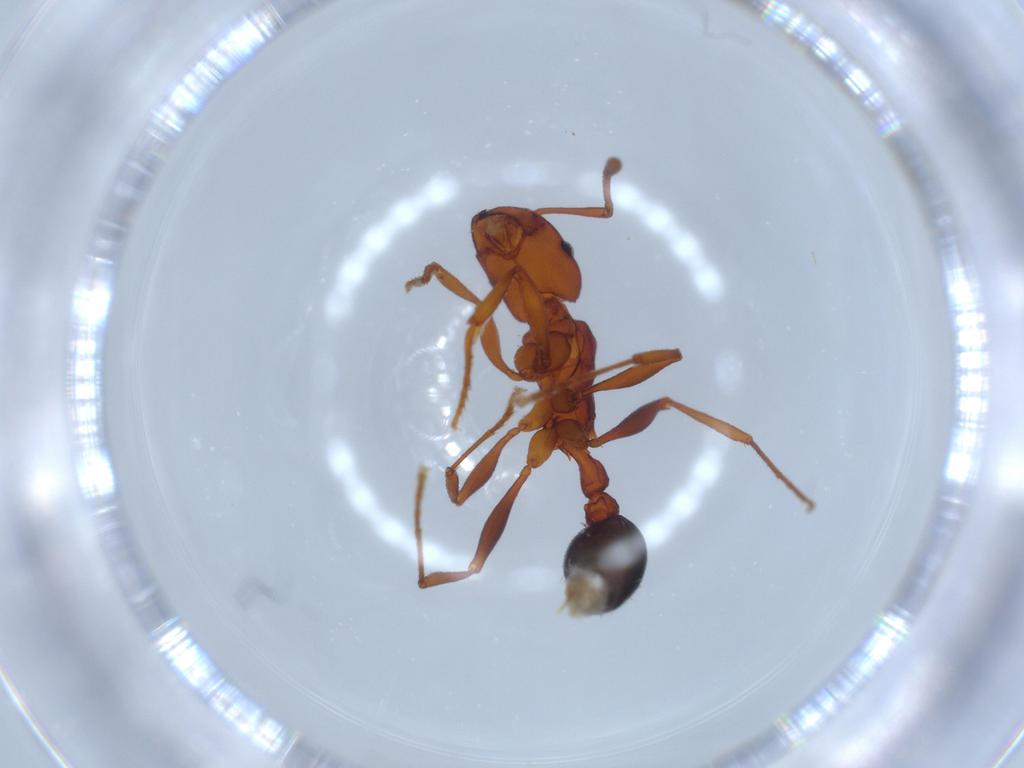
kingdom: Animalia
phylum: Arthropoda
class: Insecta
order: Hymenoptera
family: Formicidae
